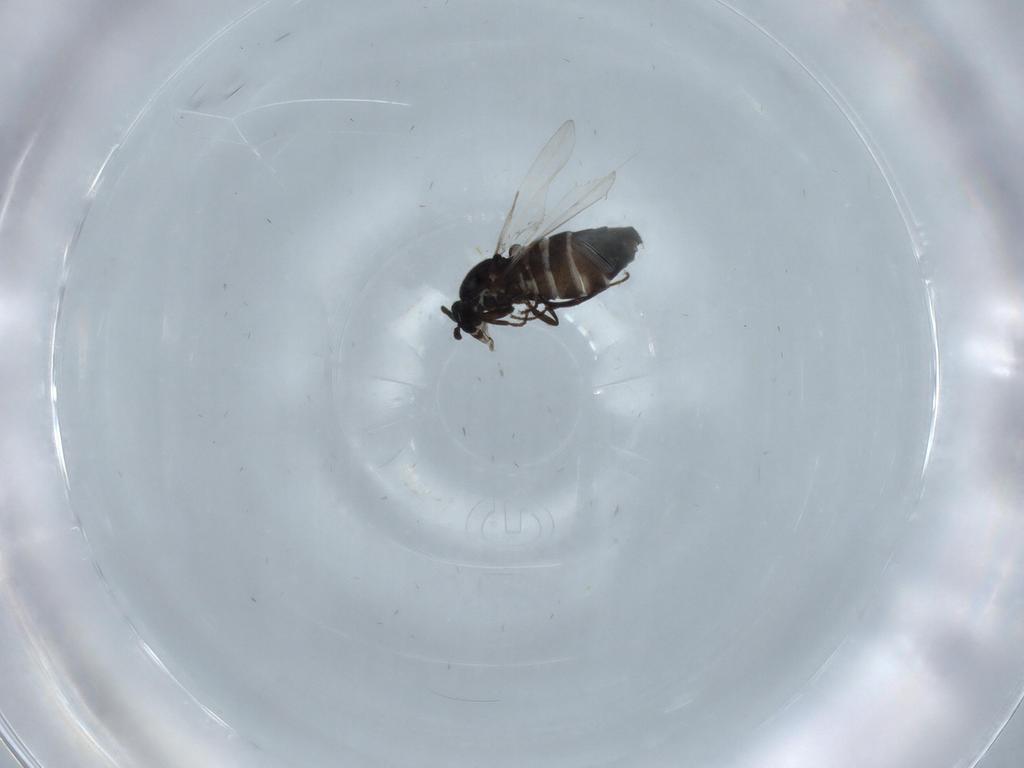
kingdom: Animalia
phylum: Arthropoda
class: Insecta
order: Diptera
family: Scatopsidae
